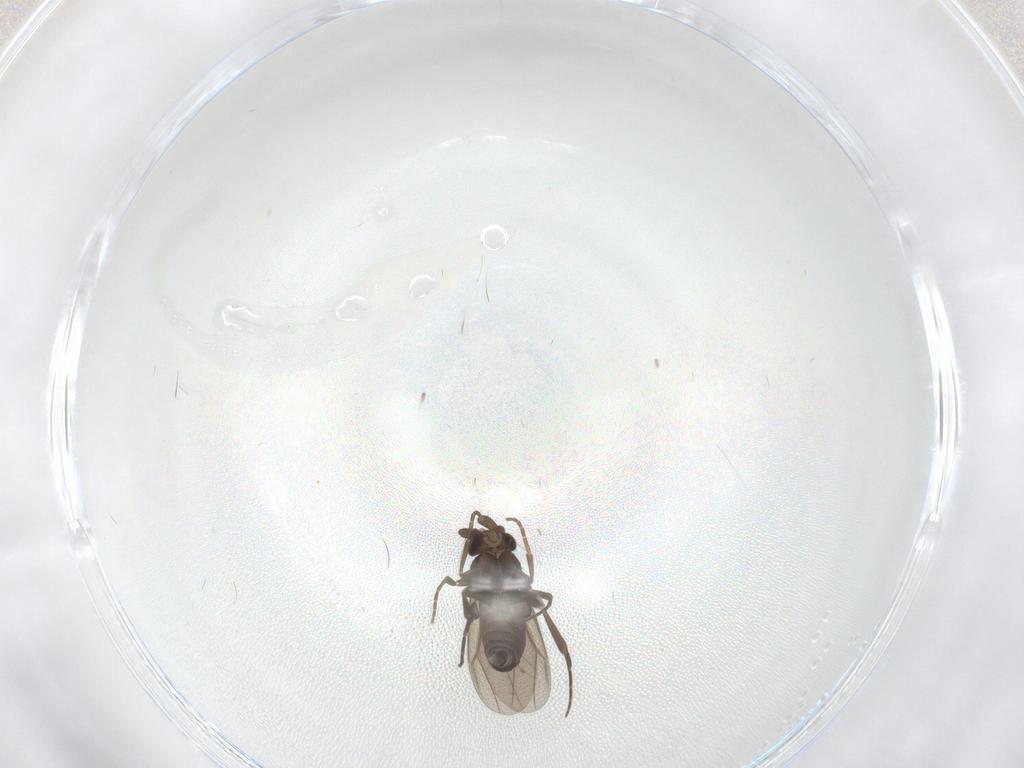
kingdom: Animalia
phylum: Arthropoda
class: Insecta
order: Diptera
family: Phoridae
